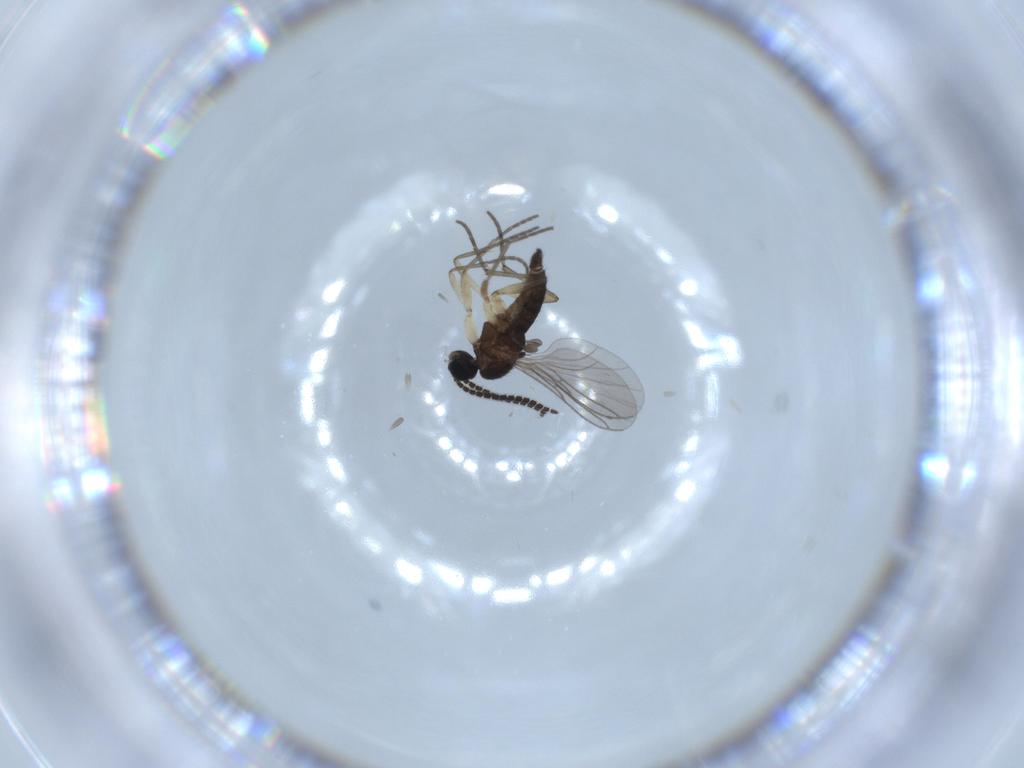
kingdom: Animalia
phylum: Arthropoda
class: Insecta
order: Diptera
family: Sciaridae
